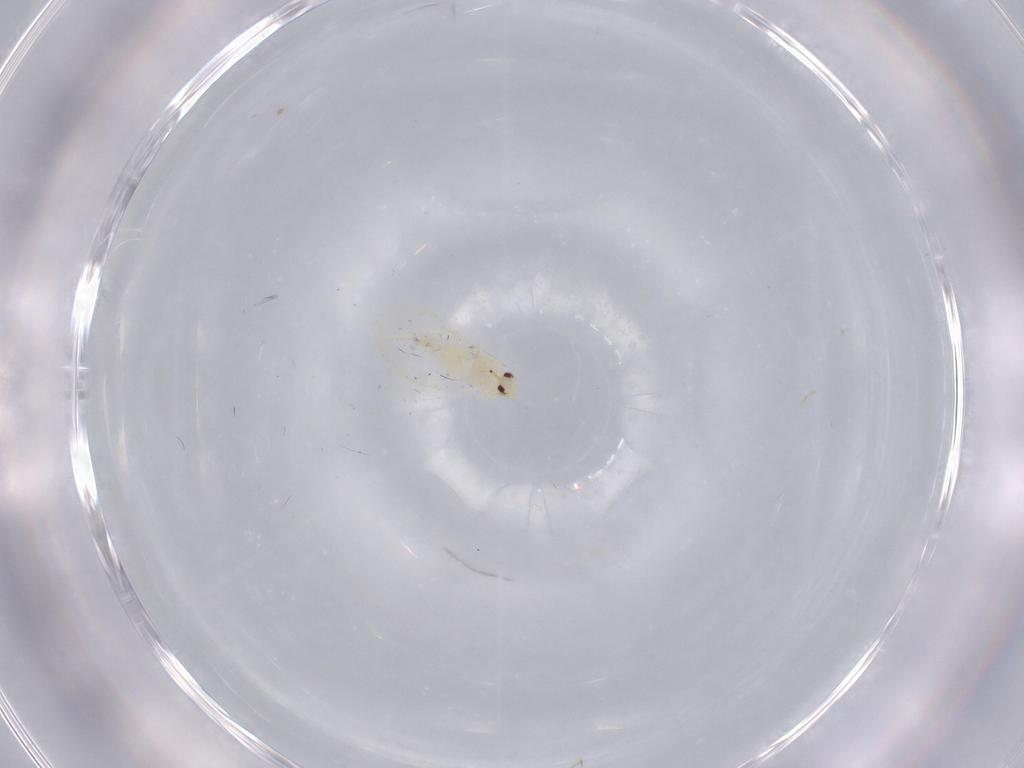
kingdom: Animalia
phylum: Arthropoda
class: Insecta
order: Hemiptera
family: Aleyrodidae
